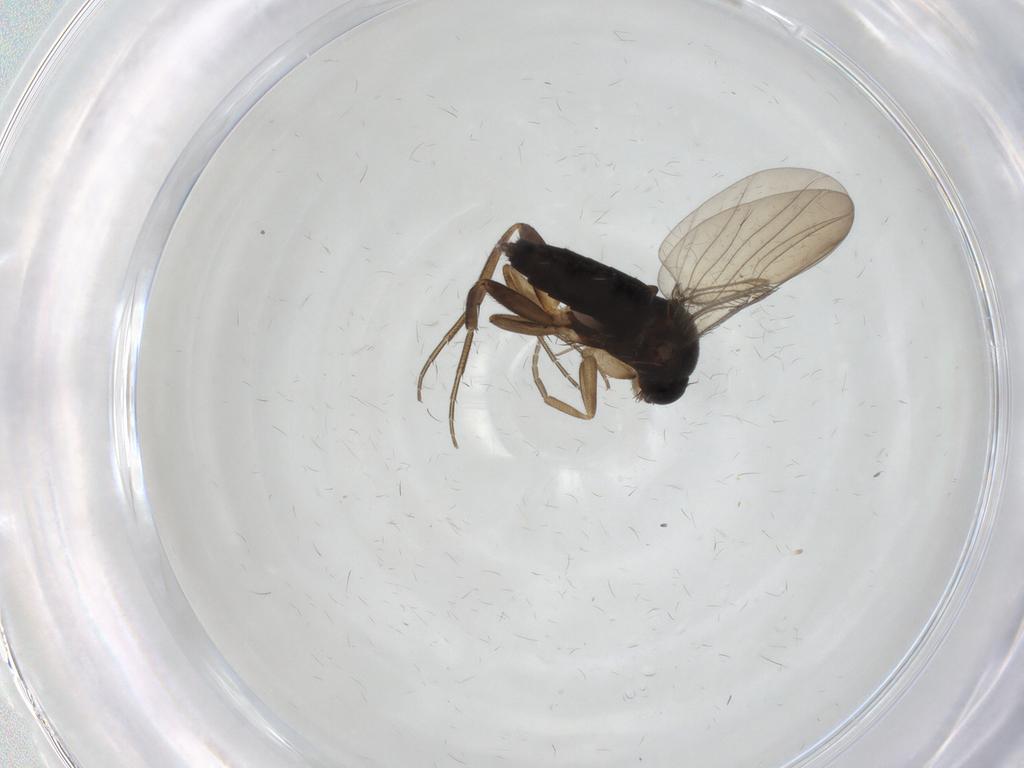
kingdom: Animalia
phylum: Arthropoda
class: Insecta
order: Diptera
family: Phoridae
